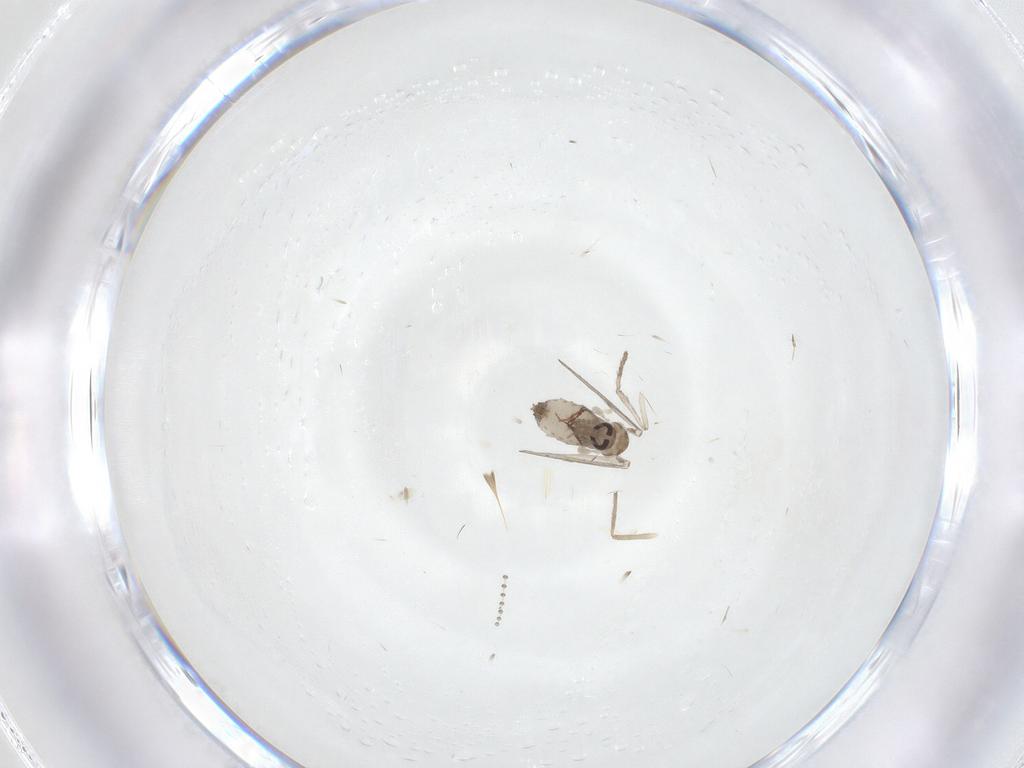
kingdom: Animalia
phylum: Arthropoda
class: Insecta
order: Diptera
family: Psychodidae
